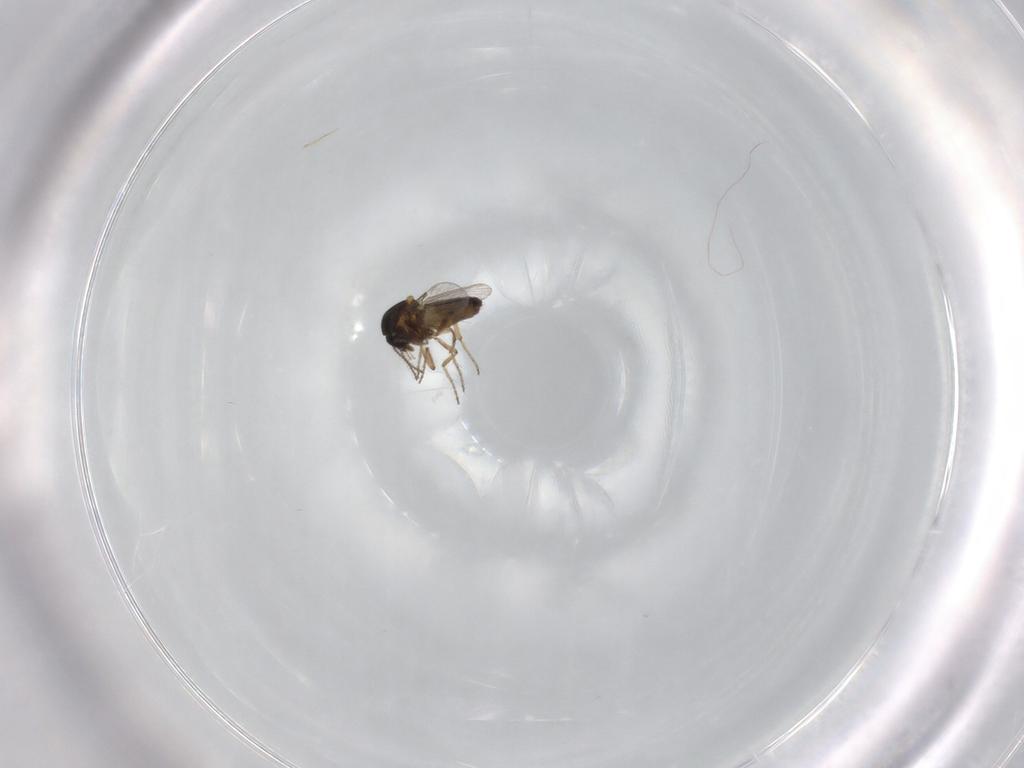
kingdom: Animalia
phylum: Arthropoda
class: Insecta
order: Diptera
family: Ceratopogonidae
